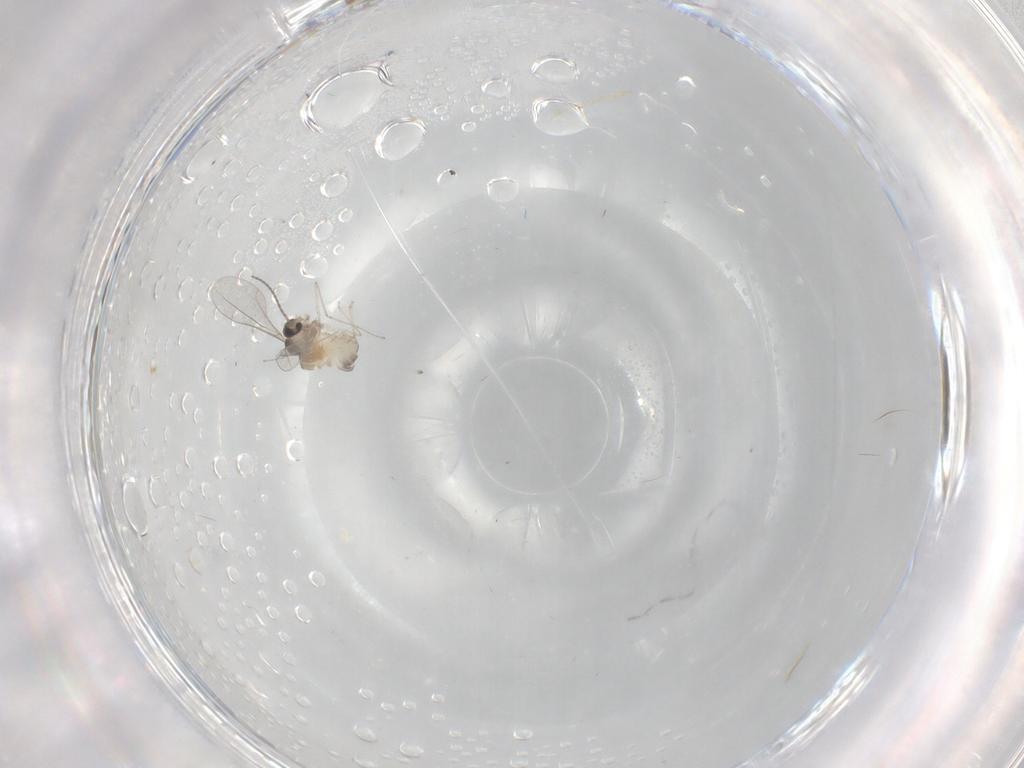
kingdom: Animalia
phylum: Arthropoda
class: Insecta
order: Diptera
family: Cecidomyiidae
